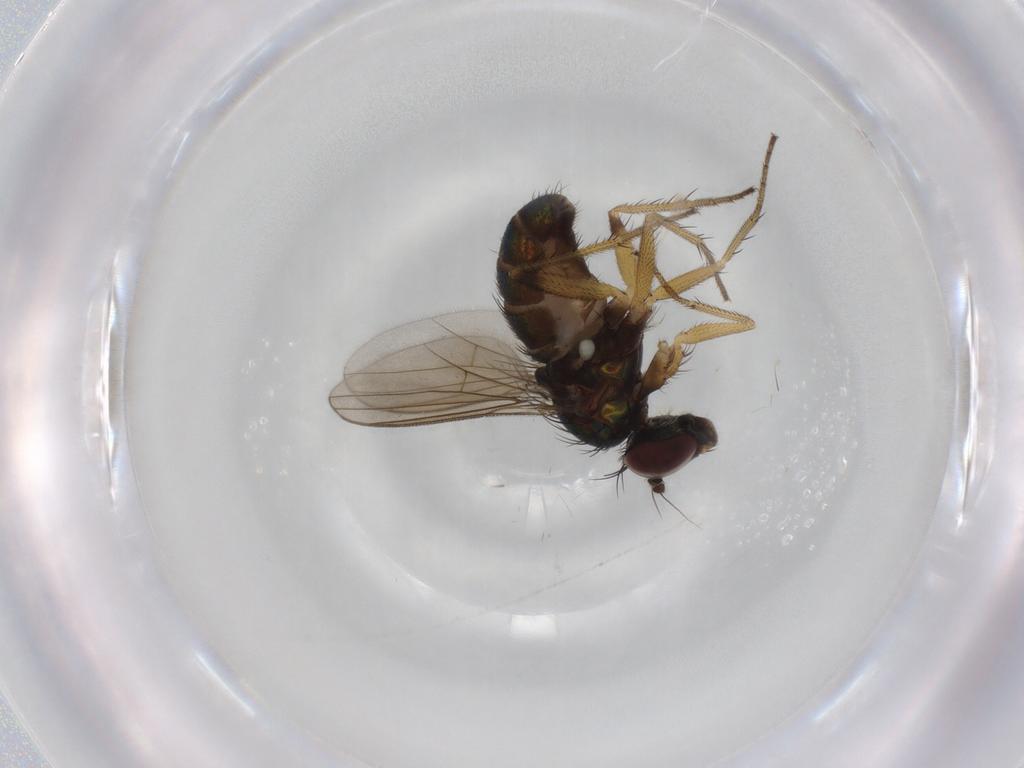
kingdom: Animalia
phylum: Arthropoda
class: Insecta
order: Diptera
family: Dolichopodidae
